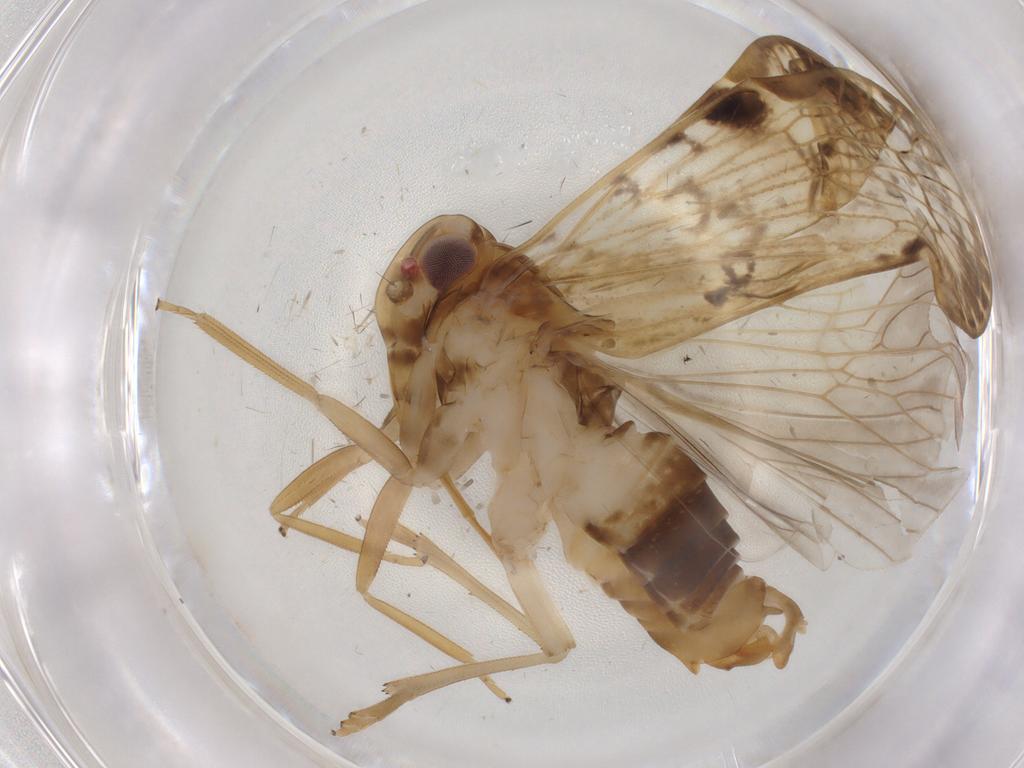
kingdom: Animalia
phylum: Arthropoda
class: Insecta
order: Hemiptera
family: Cixiidae
